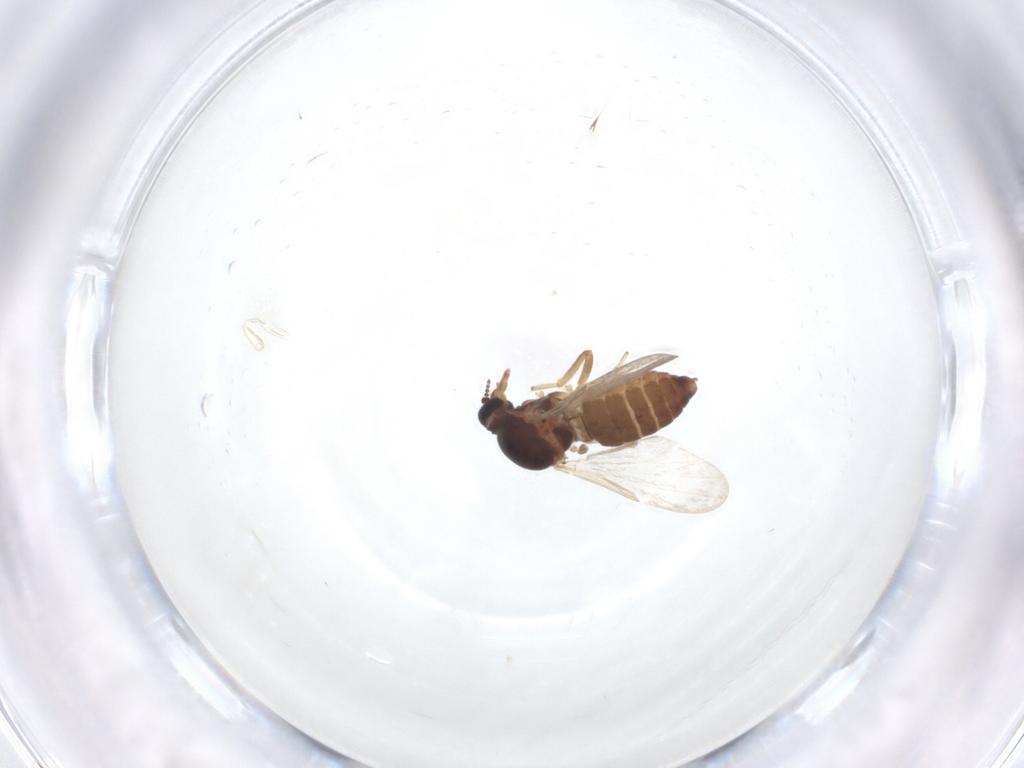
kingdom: Animalia
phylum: Arthropoda
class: Insecta
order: Diptera
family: Ceratopogonidae
